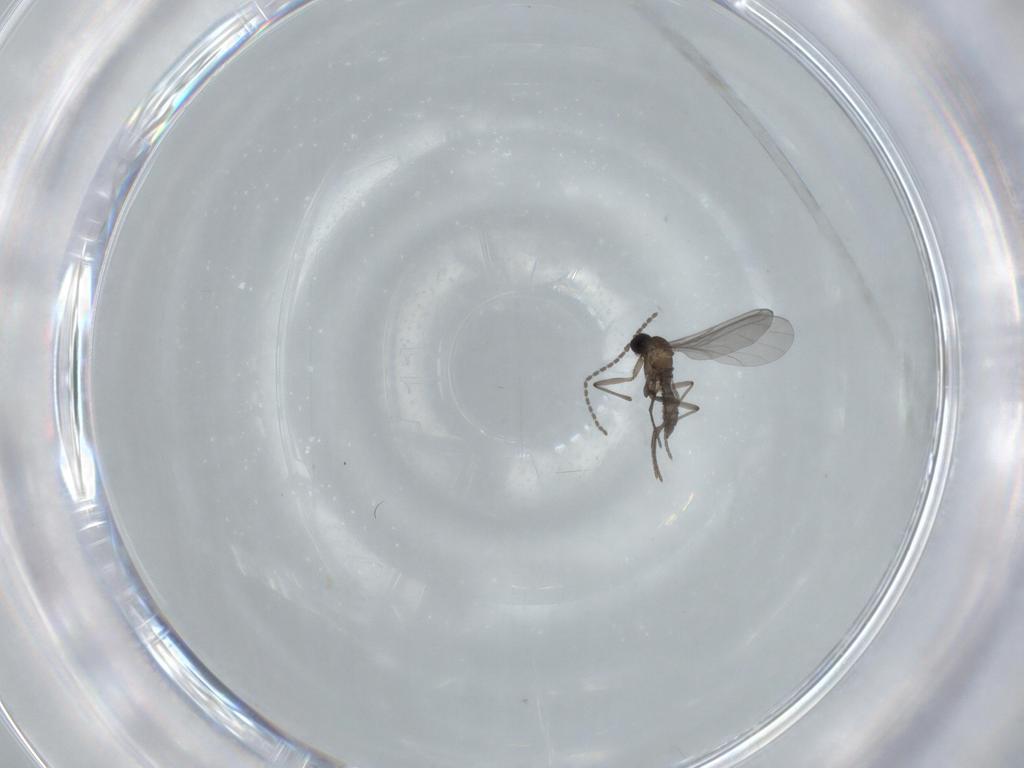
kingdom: Animalia
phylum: Arthropoda
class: Insecta
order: Diptera
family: Sciaridae
